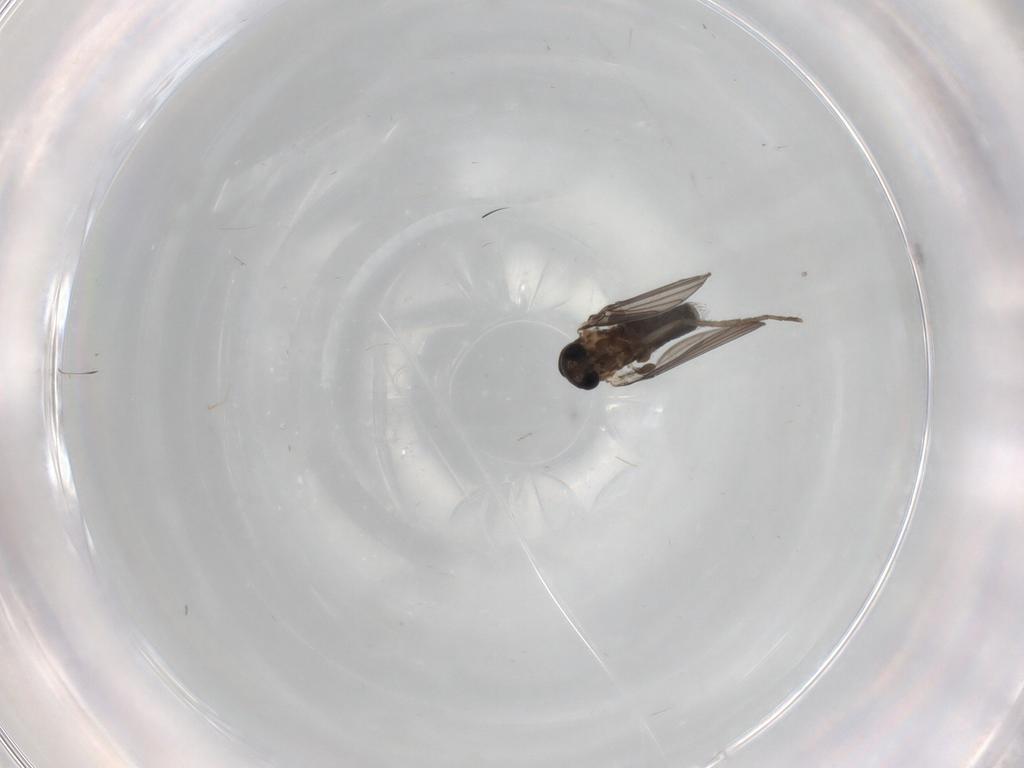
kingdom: Animalia
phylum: Arthropoda
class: Insecta
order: Diptera
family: Cecidomyiidae
